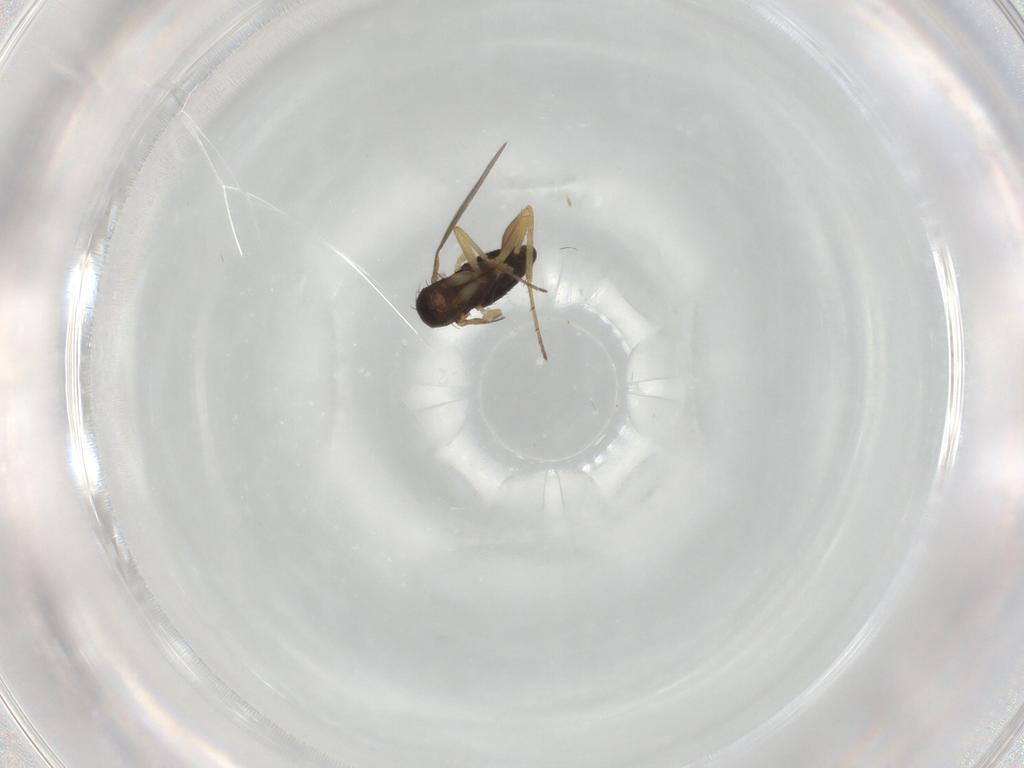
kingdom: Animalia
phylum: Arthropoda
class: Insecta
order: Diptera
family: Dolichopodidae
